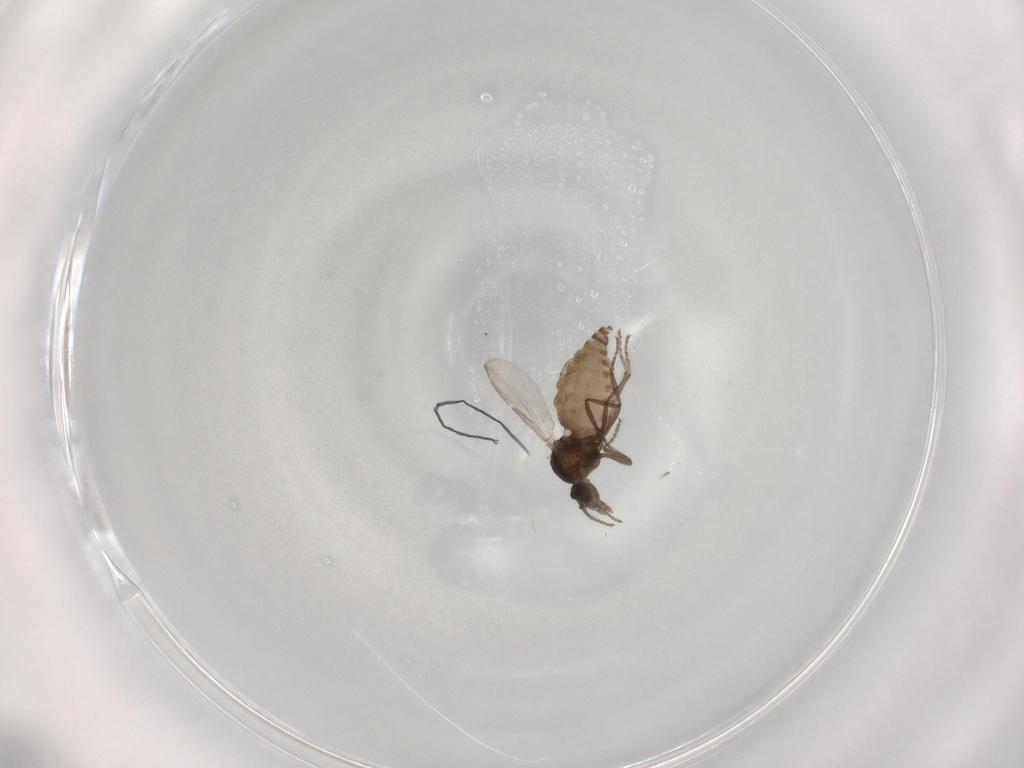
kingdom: Animalia
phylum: Arthropoda
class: Insecta
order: Diptera
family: Ceratopogonidae
